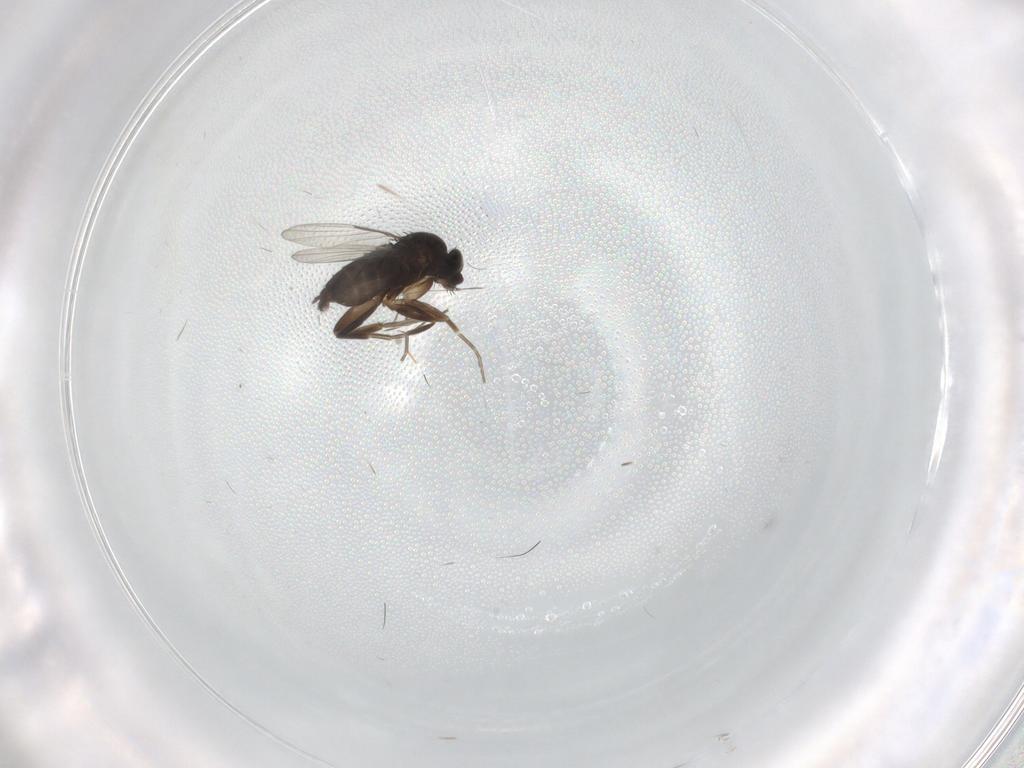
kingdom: Animalia
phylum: Arthropoda
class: Insecta
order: Diptera
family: Phoridae
